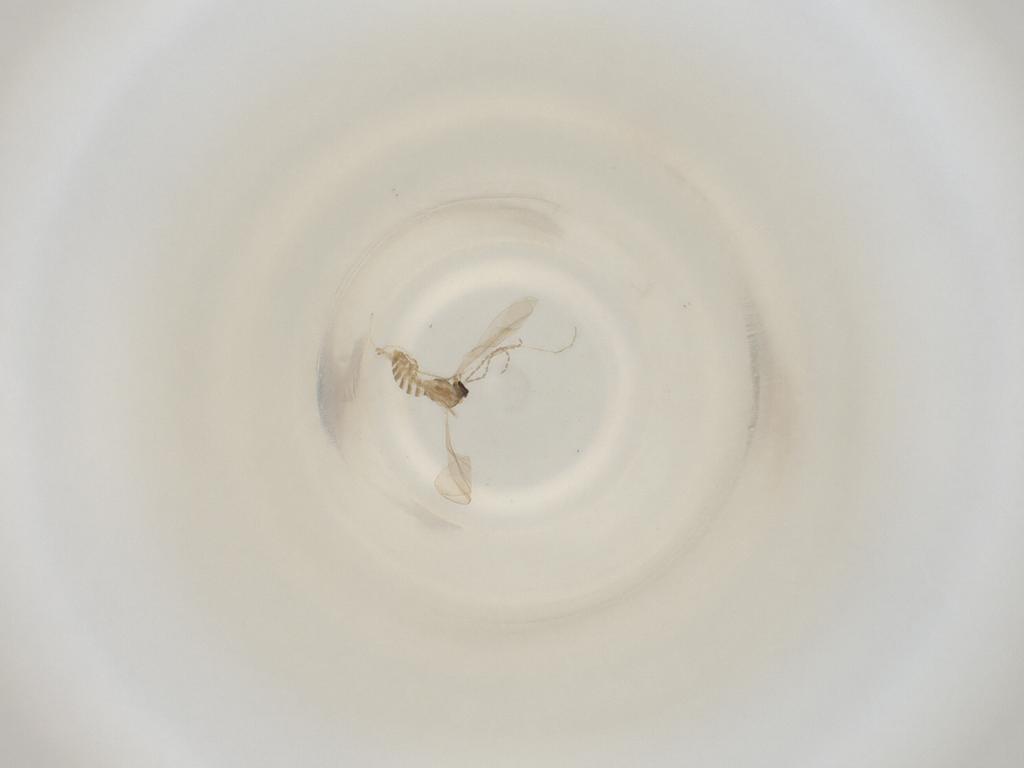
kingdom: Animalia
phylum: Arthropoda
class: Insecta
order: Diptera
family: Cecidomyiidae
